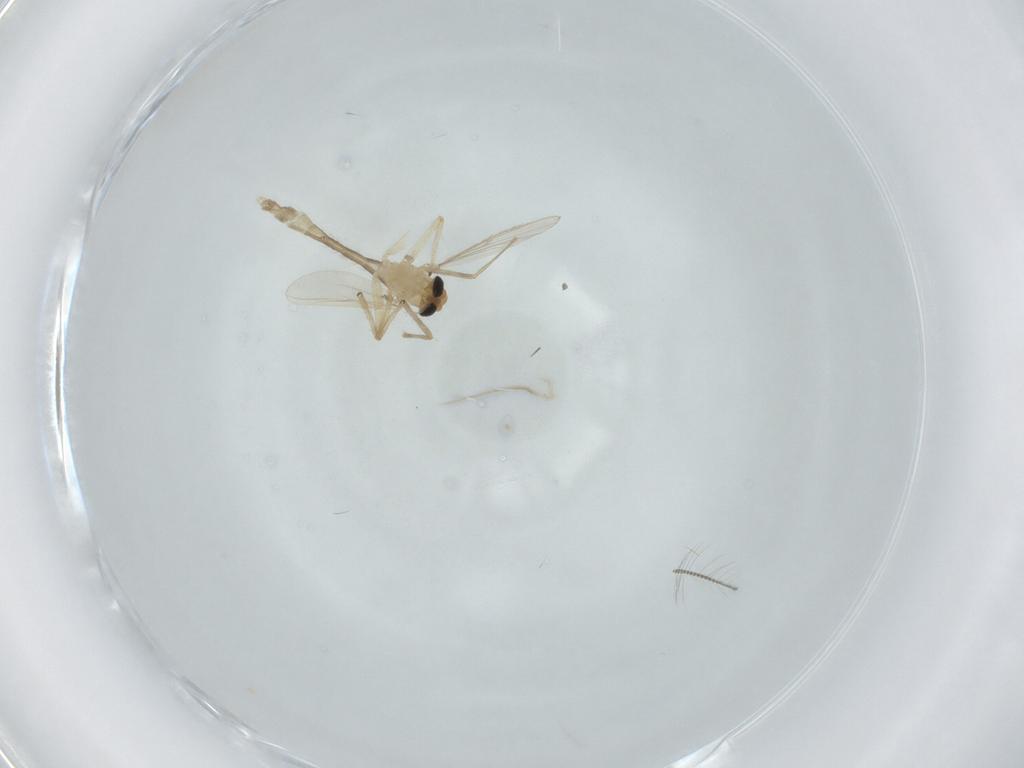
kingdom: Animalia
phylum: Arthropoda
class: Insecta
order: Diptera
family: Chironomidae
